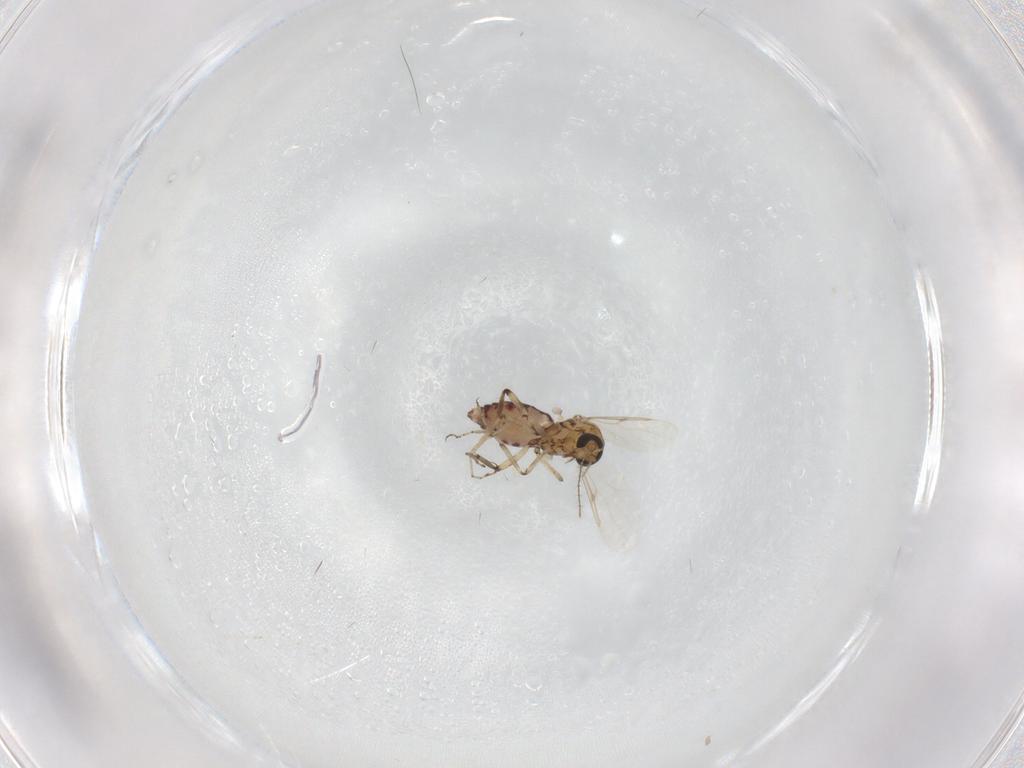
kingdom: Animalia
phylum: Arthropoda
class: Insecta
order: Diptera
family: Ceratopogonidae
